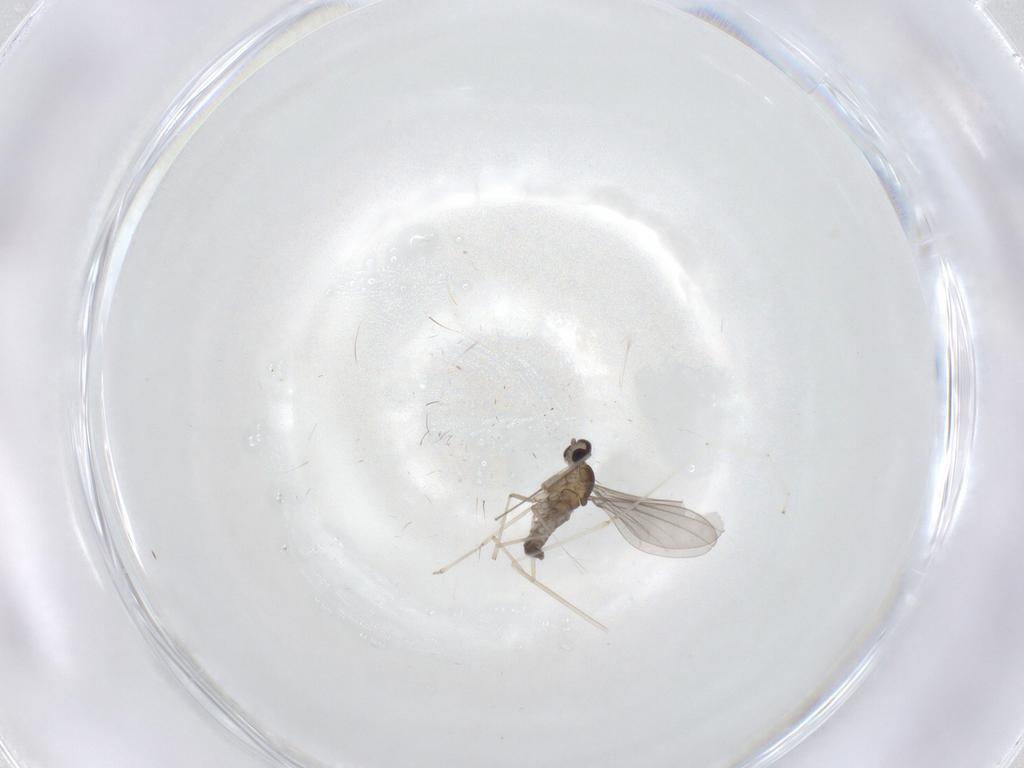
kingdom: Animalia
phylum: Arthropoda
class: Insecta
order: Diptera
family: Cecidomyiidae
